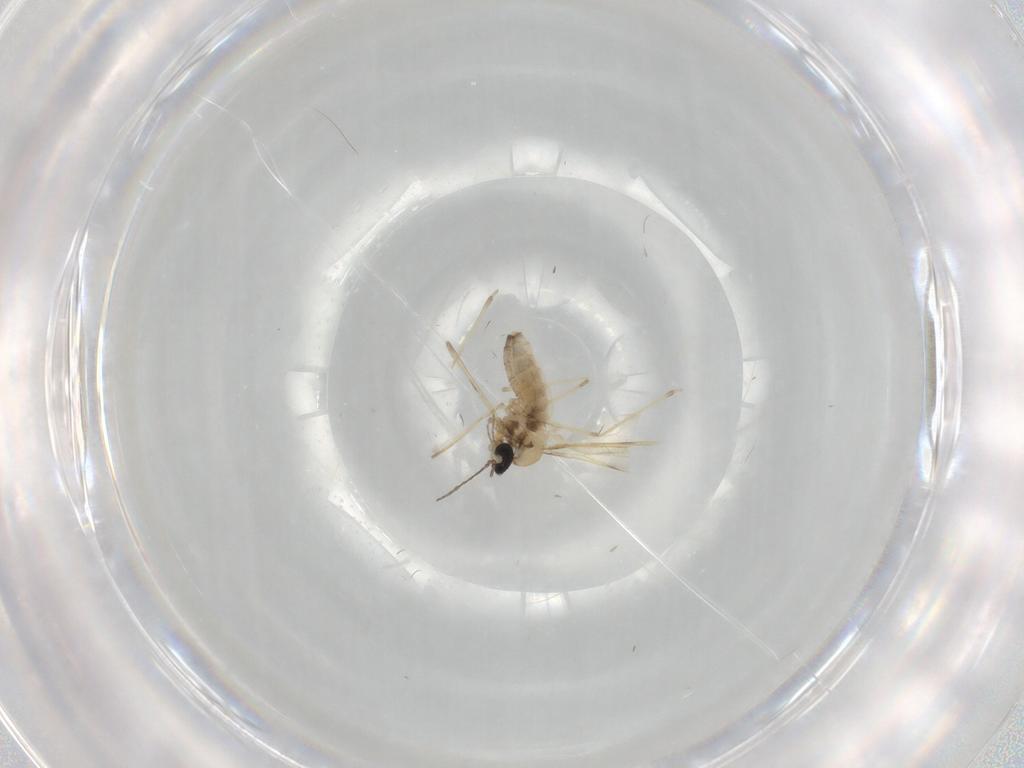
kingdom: Animalia
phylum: Arthropoda
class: Insecta
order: Diptera
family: Cecidomyiidae
